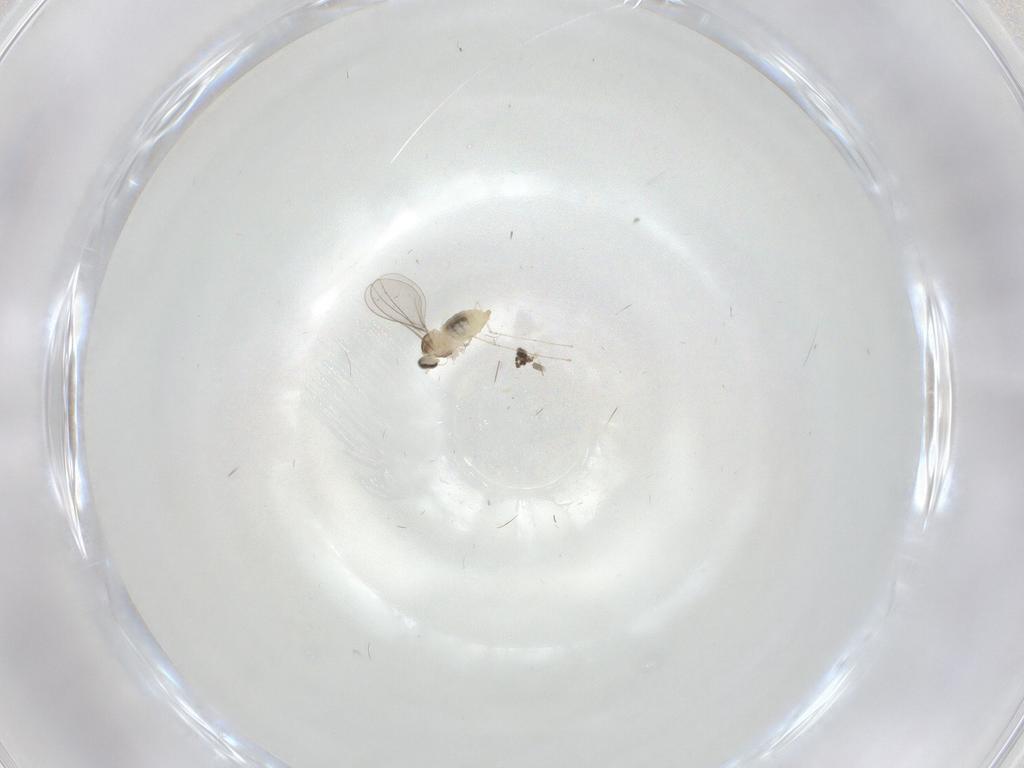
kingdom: Animalia
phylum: Arthropoda
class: Insecta
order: Diptera
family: Cecidomyiidae
